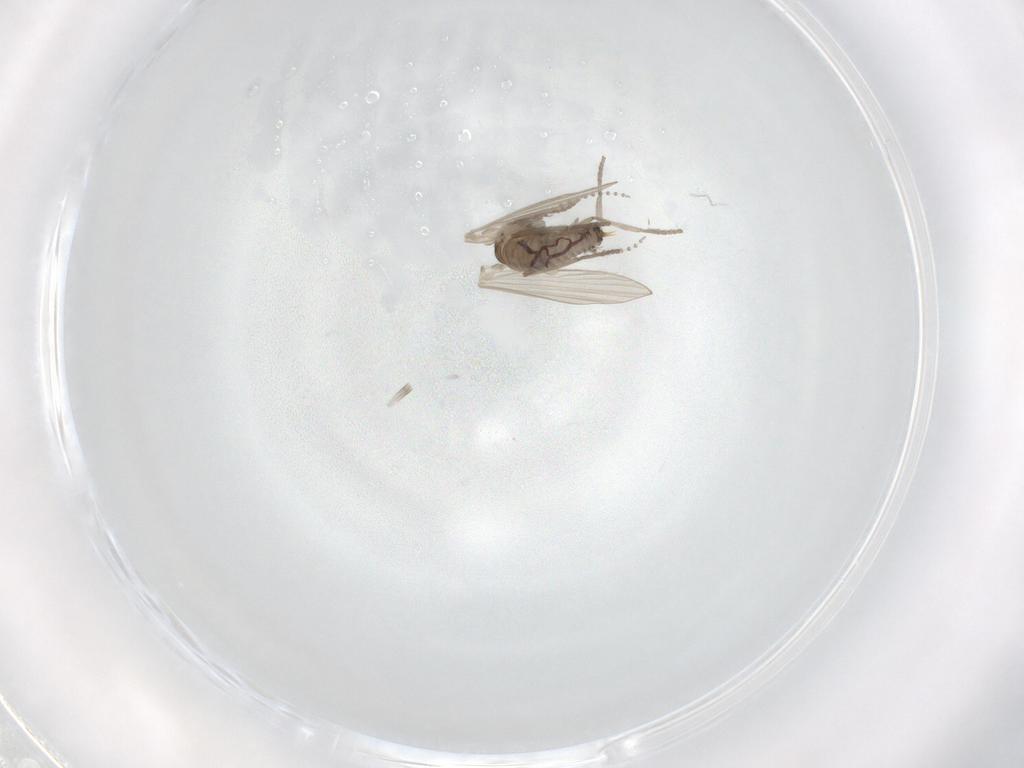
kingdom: Animalia
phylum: Arthropoda
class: Insecta
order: Diptera
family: Psychodidae
